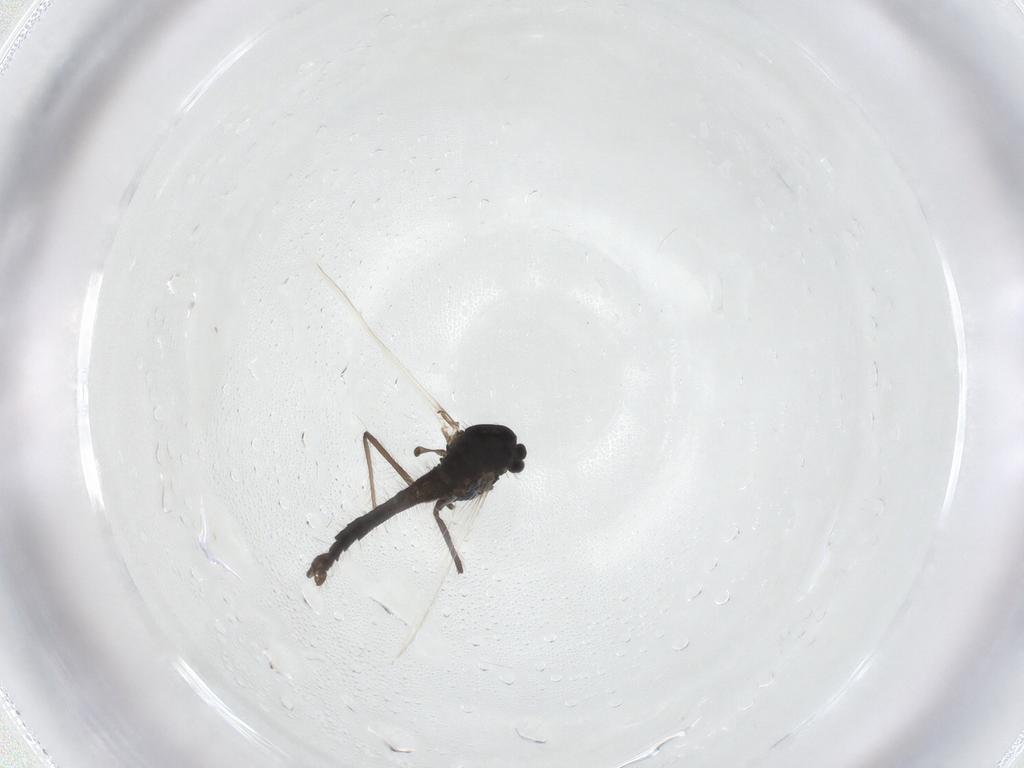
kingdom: Animalia
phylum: Arthropoda
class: Insecta
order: Diptera
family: Chironomidae
